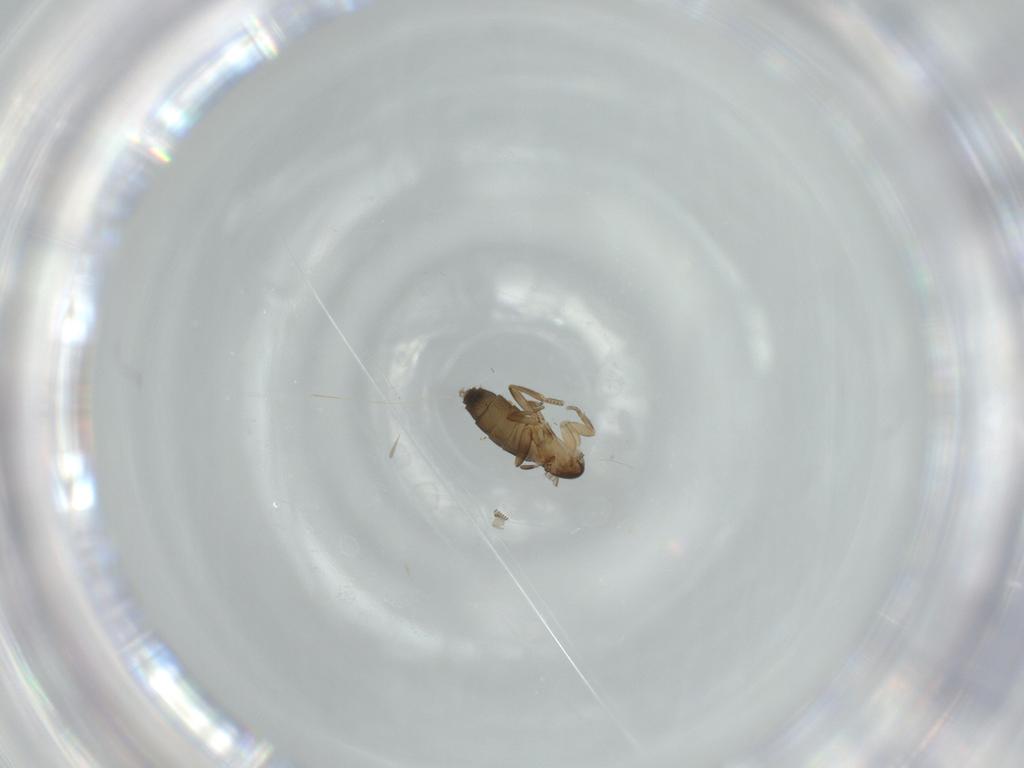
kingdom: Animalia
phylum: Arthropoda
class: Insecta
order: Diptera
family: Phoridae
